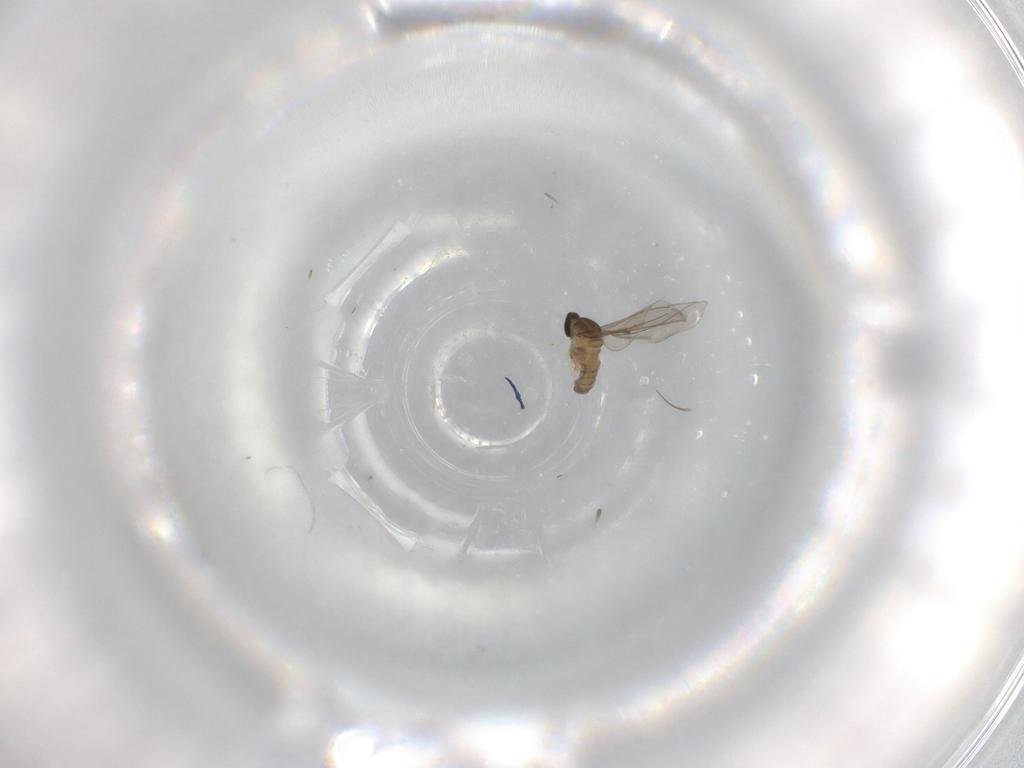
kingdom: Animalia
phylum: Arthropoda
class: Insecta
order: Diptera
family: Cecidomyiidae
